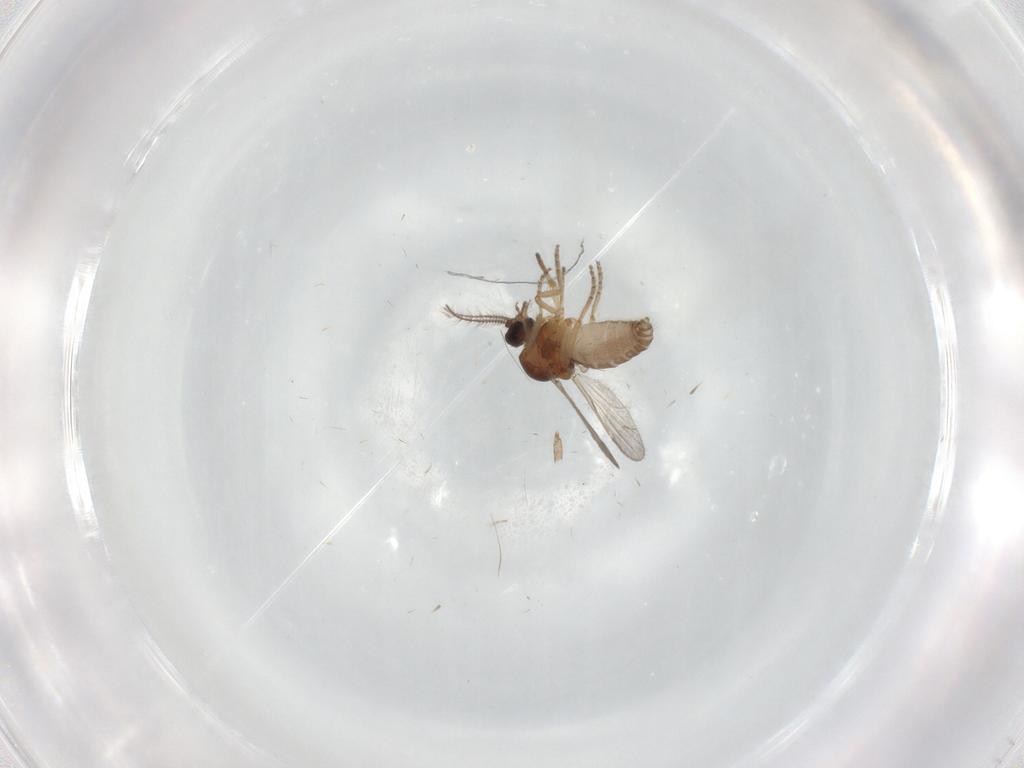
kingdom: Animalia
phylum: Arthropoda
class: Insecta
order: Diptera
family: Ceratopogonidae
